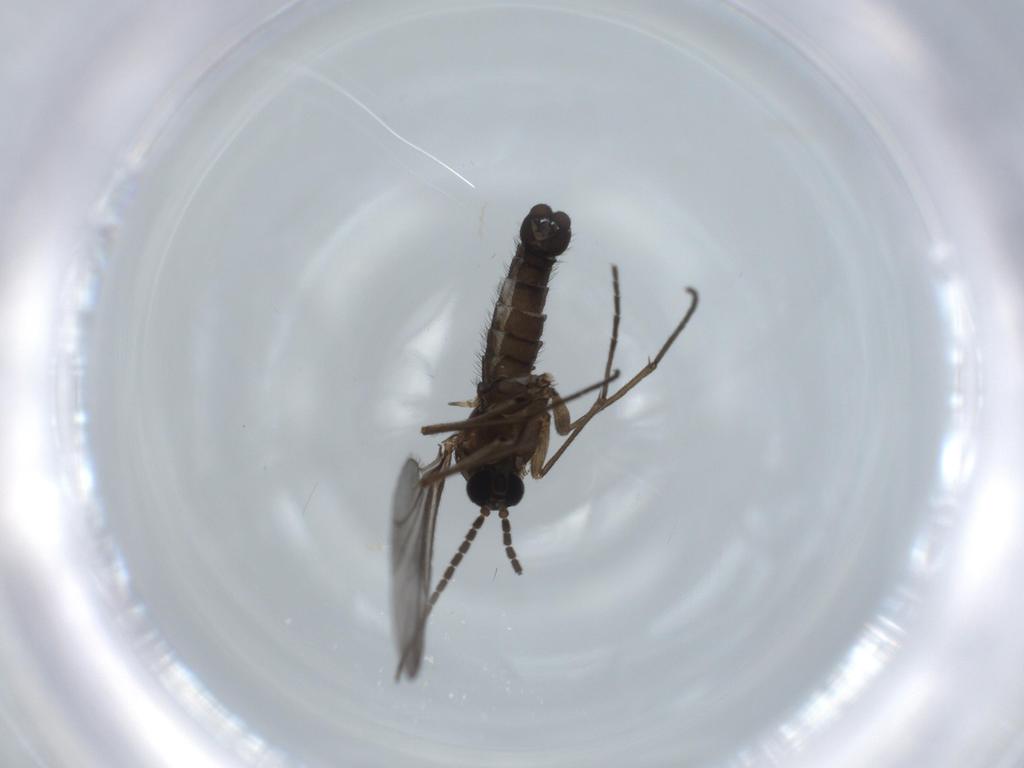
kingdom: Animalia
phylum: Arthropoda
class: Insecta
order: Diptera
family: Sciaridae
